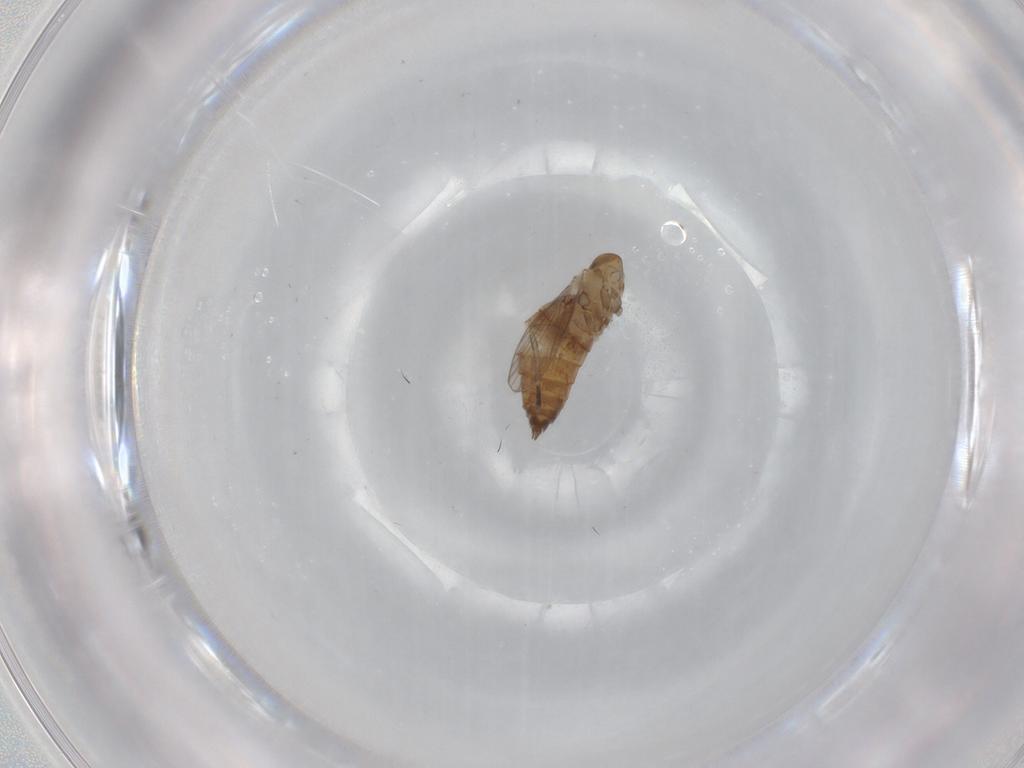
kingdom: Animalia
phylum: Arthropoda
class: Insecta
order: Diptera
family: Psychodidae
